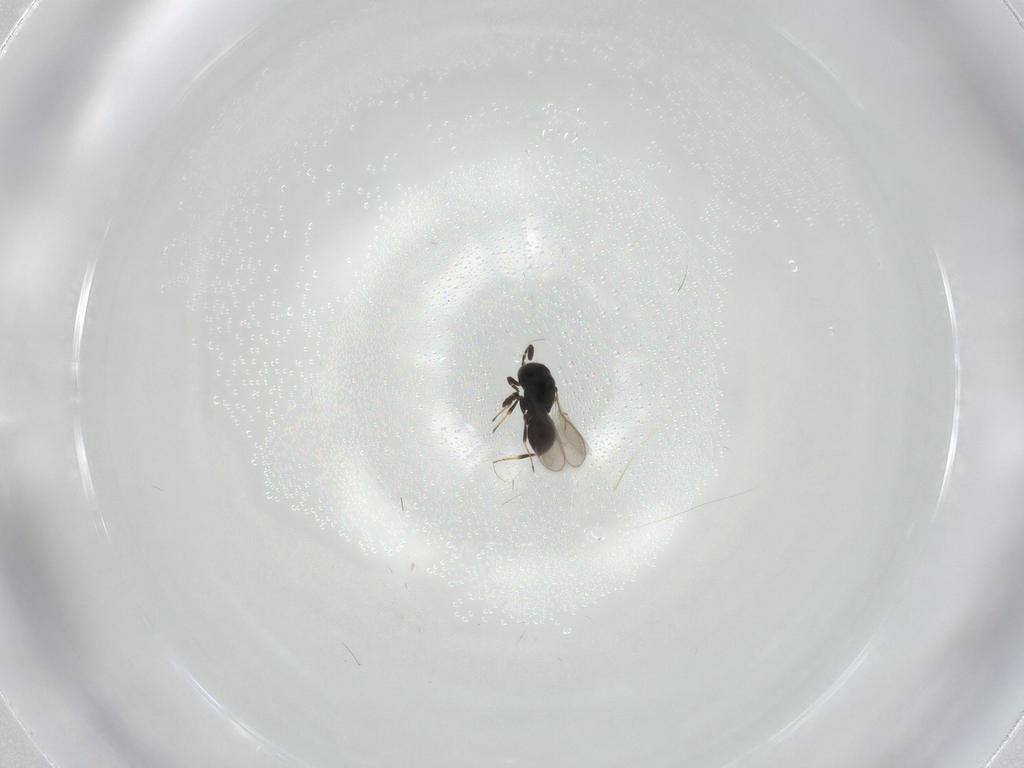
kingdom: Animalia
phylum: Arthropoda
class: Insecta
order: Hymenoptera
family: Scelionidae
